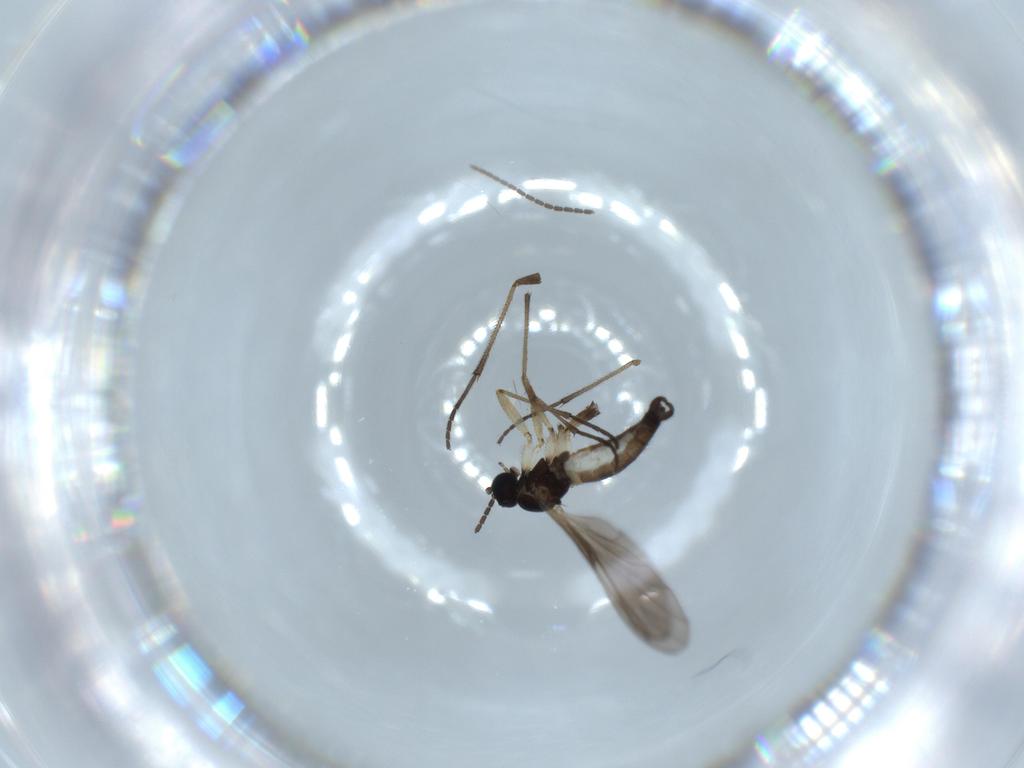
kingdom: Animalia
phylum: Arthropoda
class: Insecta
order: Diptera
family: Sciaridae
